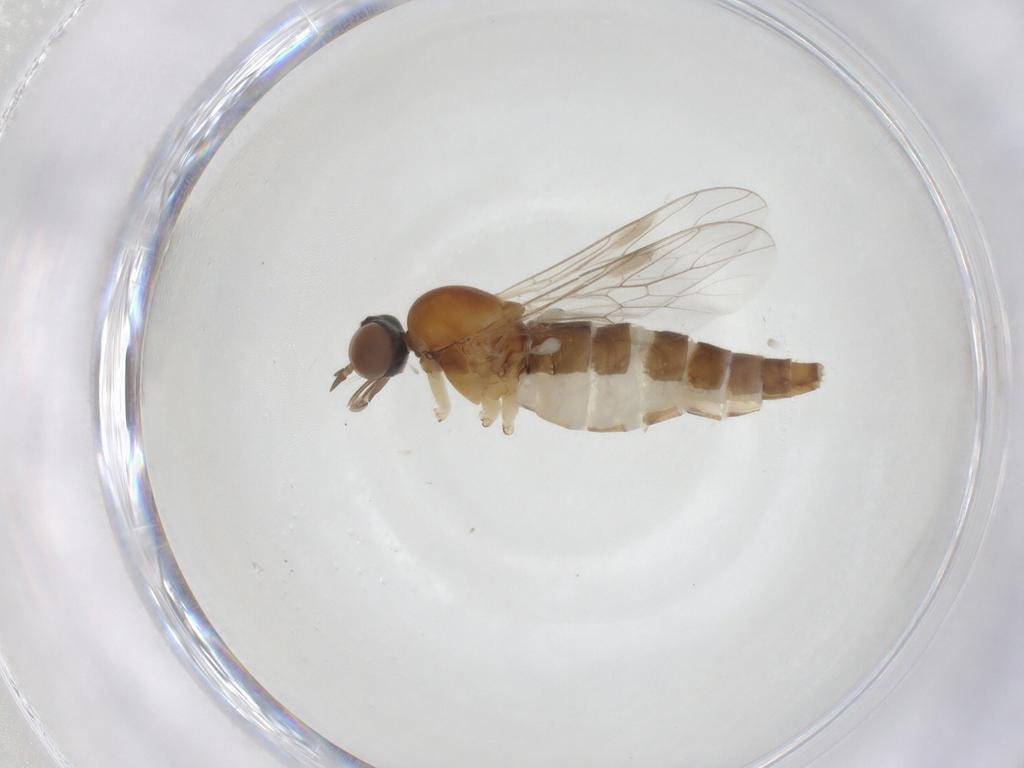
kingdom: Animalia
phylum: Arthropoda
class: Insecta
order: Diptera
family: Scenopinidae
